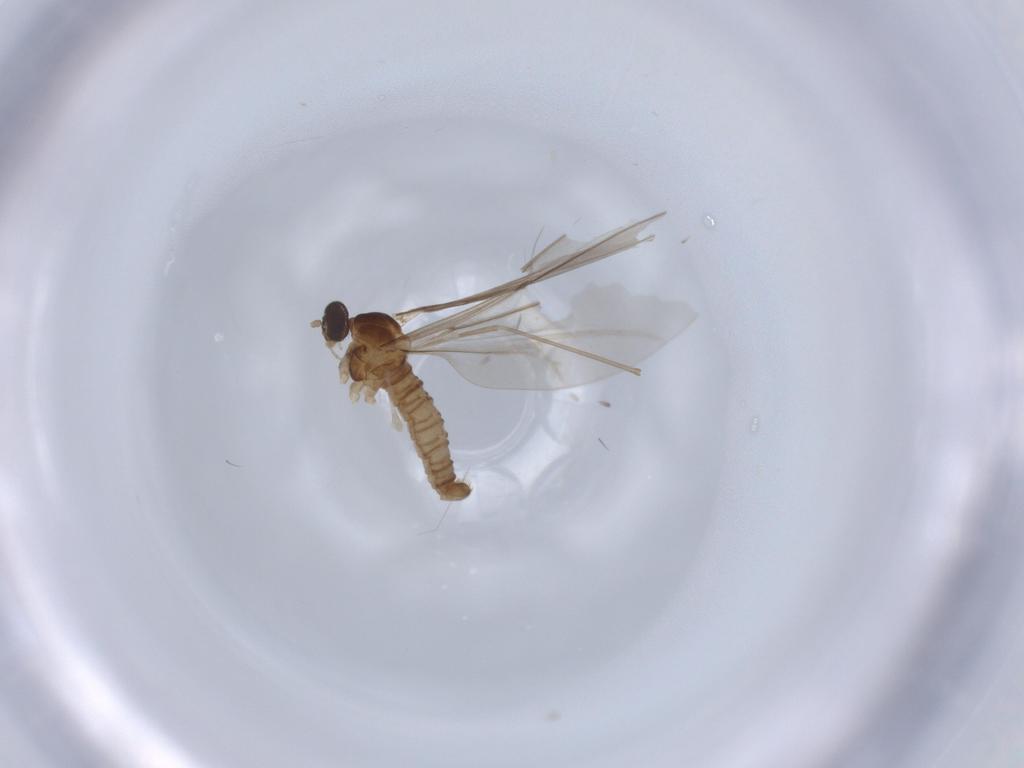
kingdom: Animalia
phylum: Arthropoda
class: Insecta
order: Diptera
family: Cecidomyiidae
